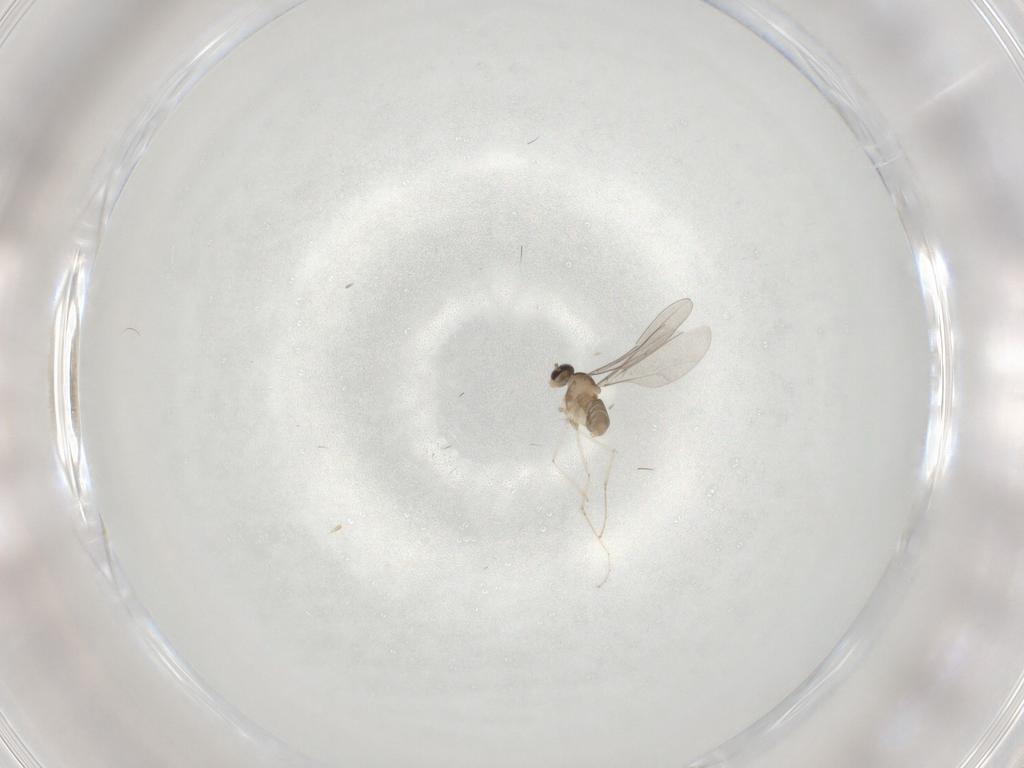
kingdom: Animalia
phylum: Arthropoda
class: Insecta
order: Diptera
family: Cecidomyiidae
